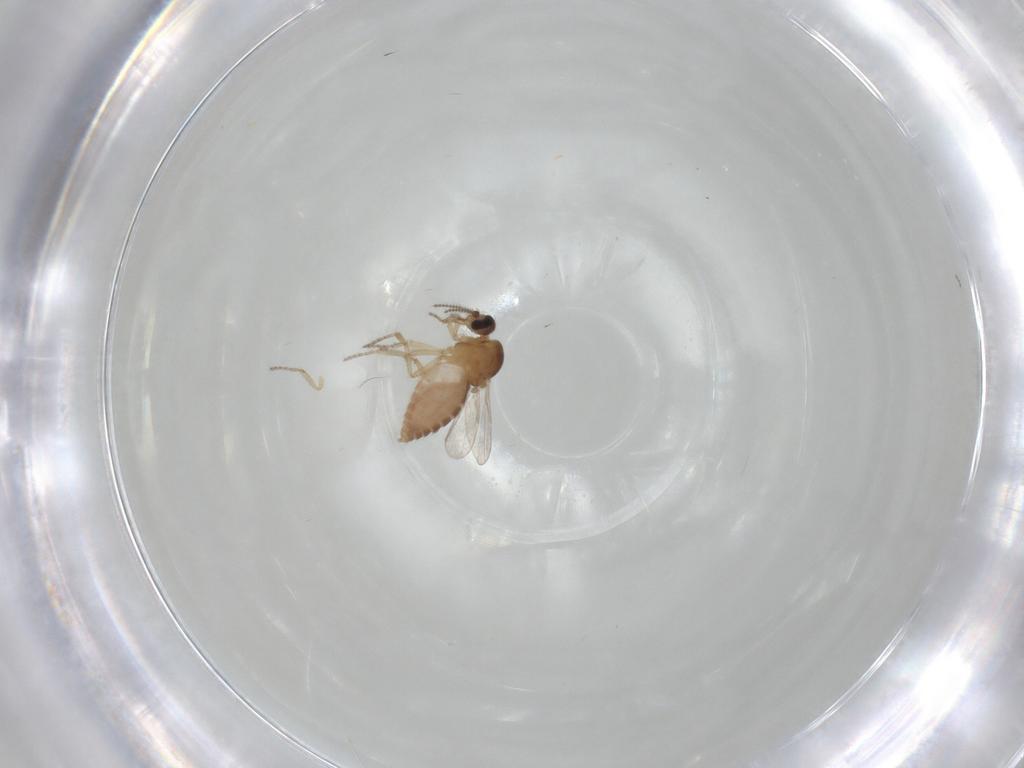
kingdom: Animalia
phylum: Arthropoda
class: Insecta
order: Diptera
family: Ceratopogonidae
